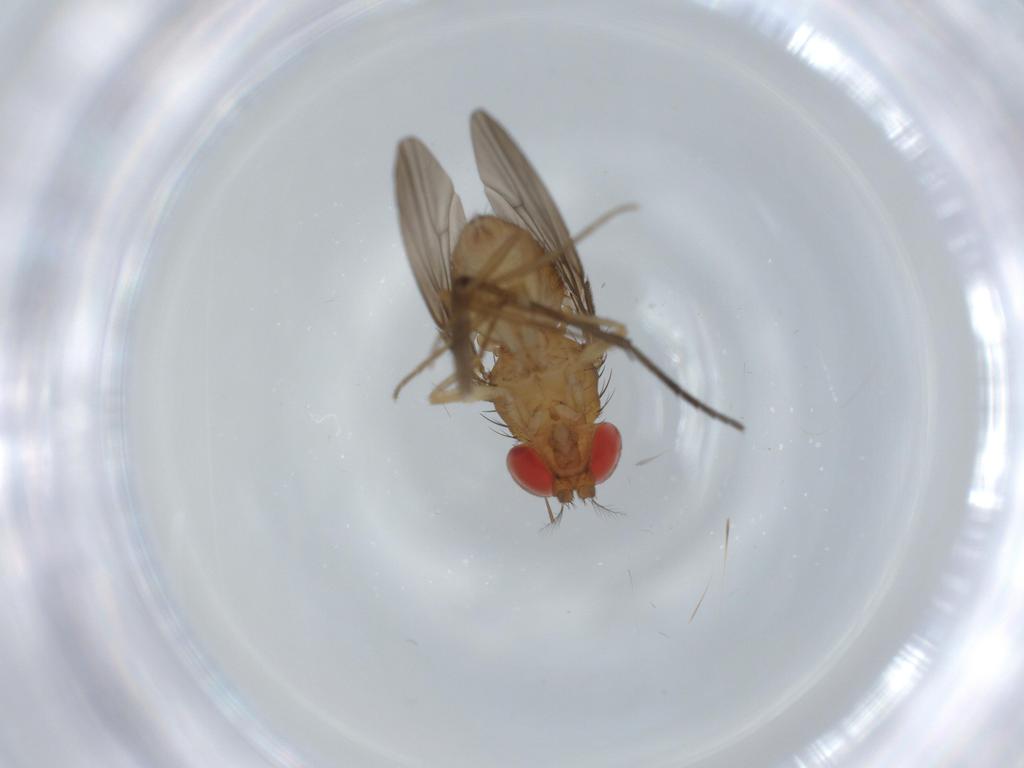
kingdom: Animalia
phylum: Arthropoda
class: Insecta
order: Diptera
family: Drosophilidae
